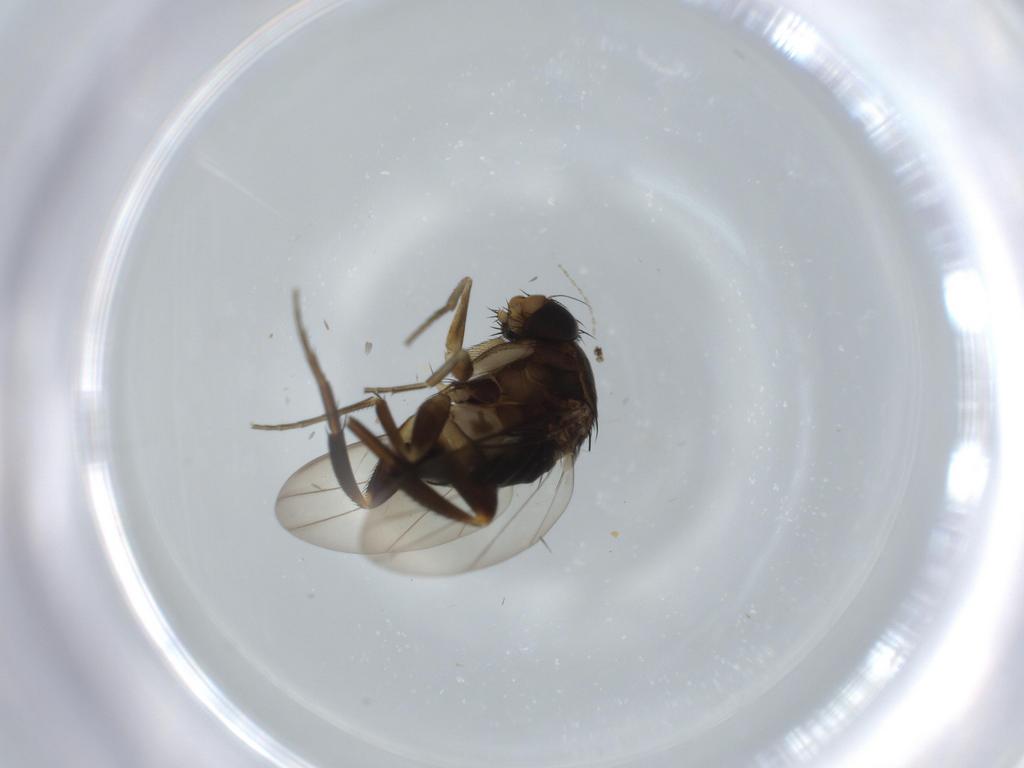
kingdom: Animalia
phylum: Arthropoda
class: Insecta
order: Diptera
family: Phoridae
